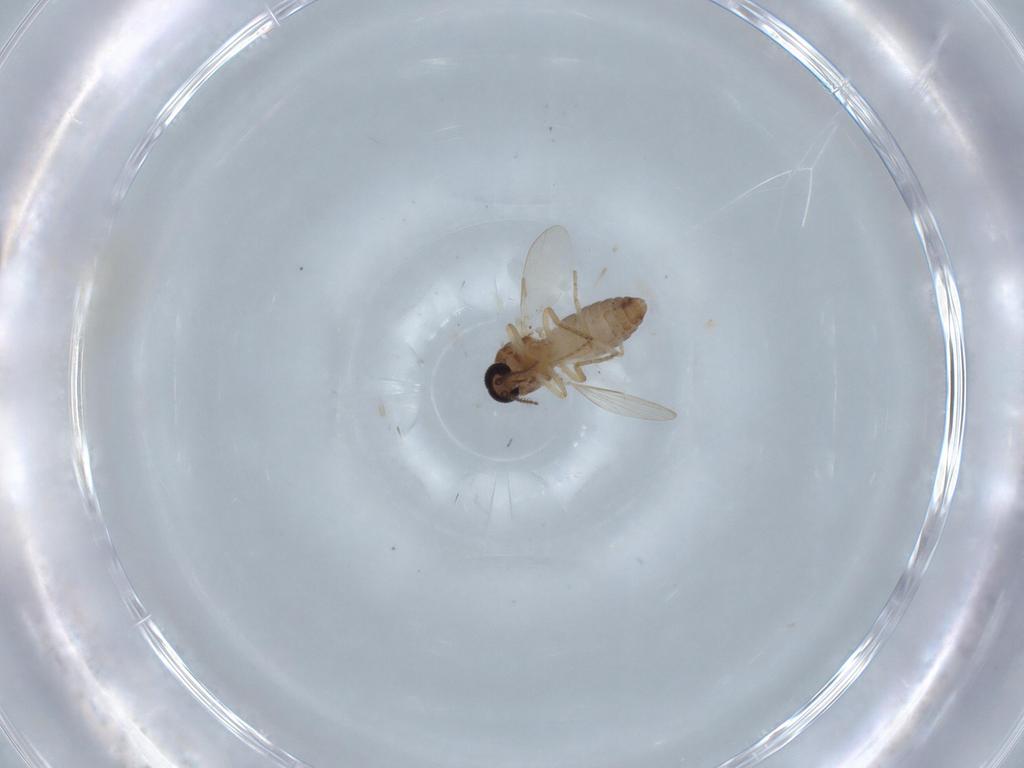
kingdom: Animalia
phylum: Arthropoda
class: Insecta
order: Diptera
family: Ceratopogonidae
